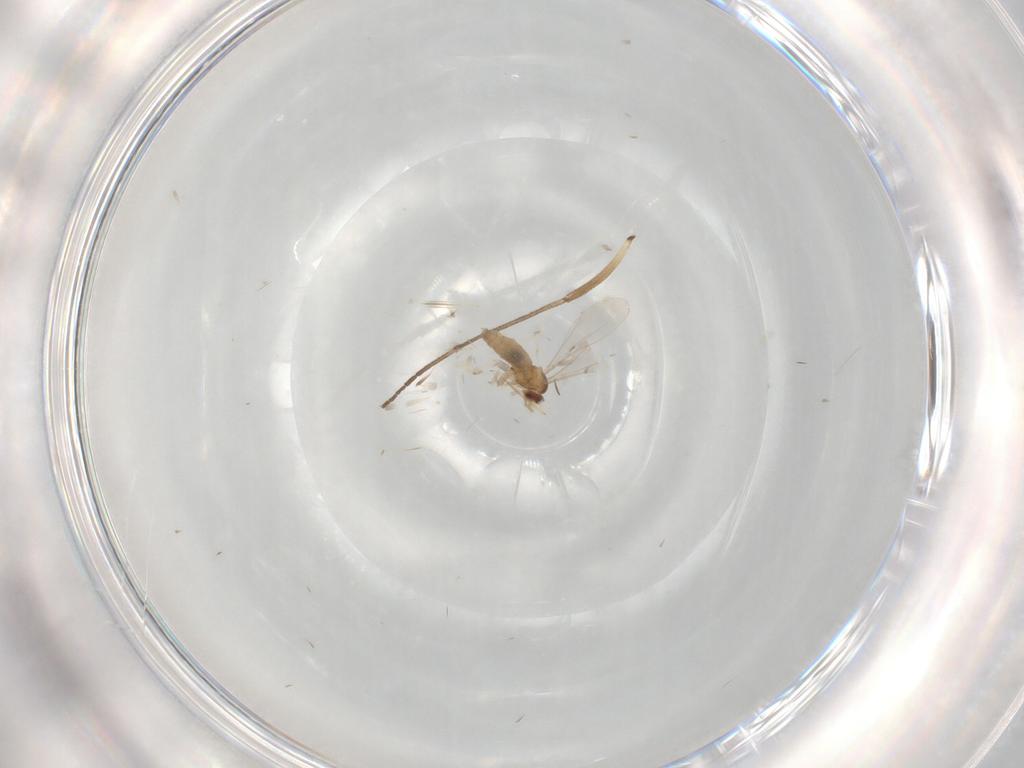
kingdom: Animalia
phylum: Arthropoda
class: Insecta
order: Diptera
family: Cecidomyiidae
